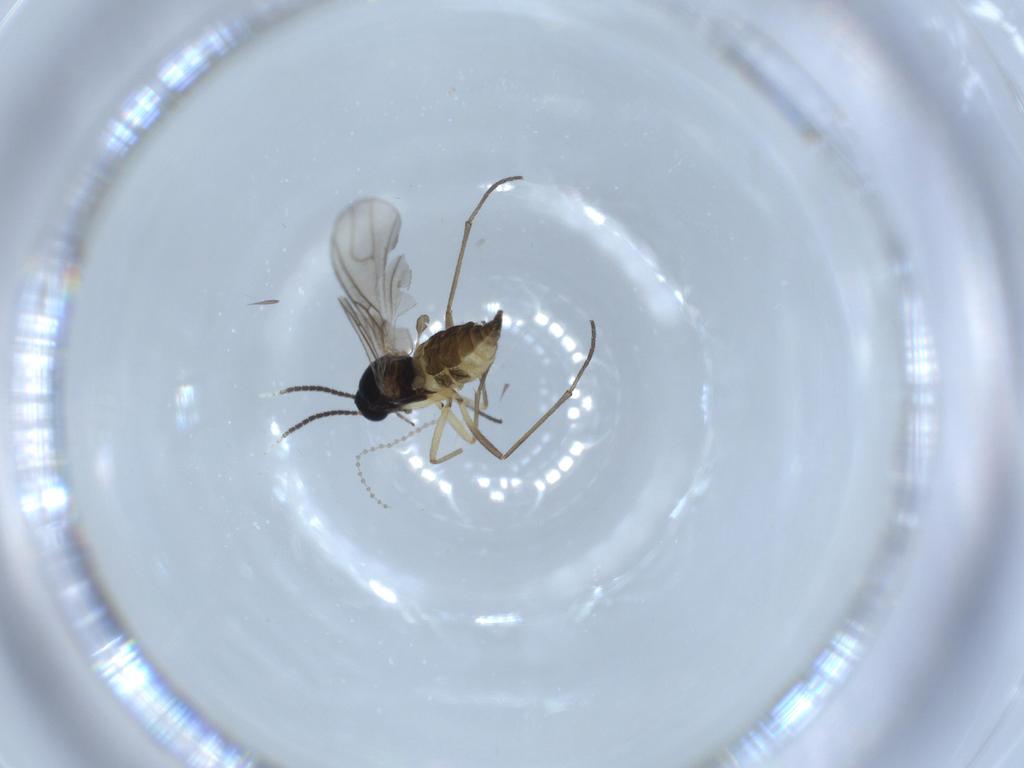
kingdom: Animalia
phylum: Arthropoda
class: Insecta
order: Diptera
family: Sciaridae
